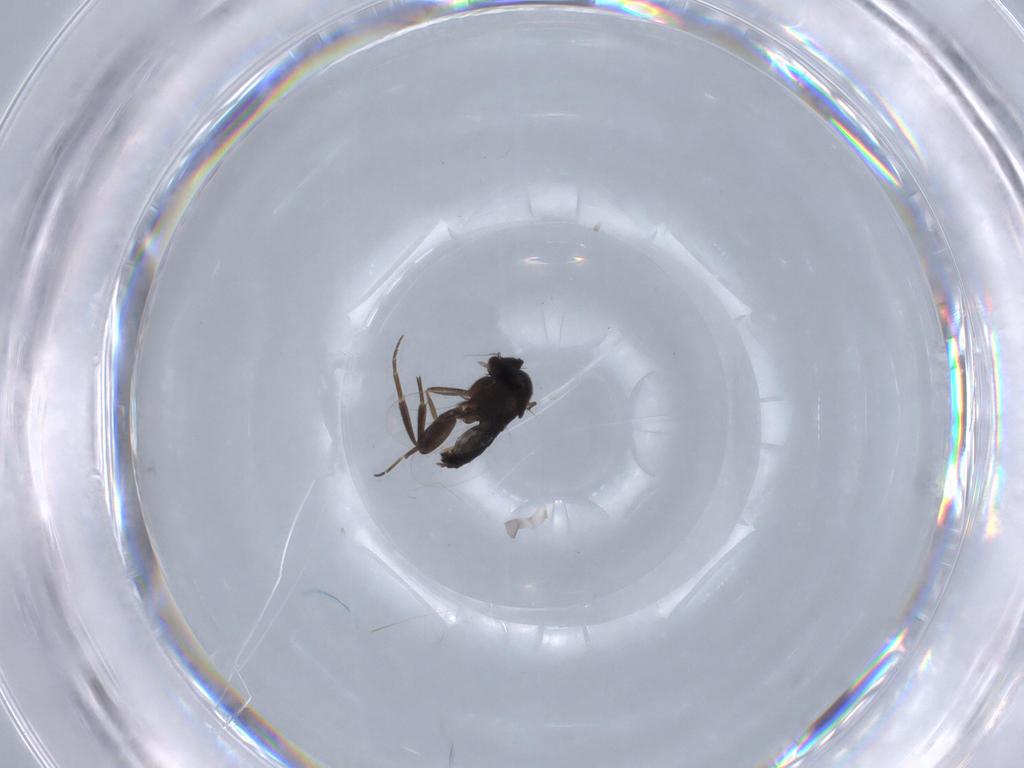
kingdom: Animalia
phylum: Arthropoda
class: Insecta
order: Diptera
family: Phoridae
